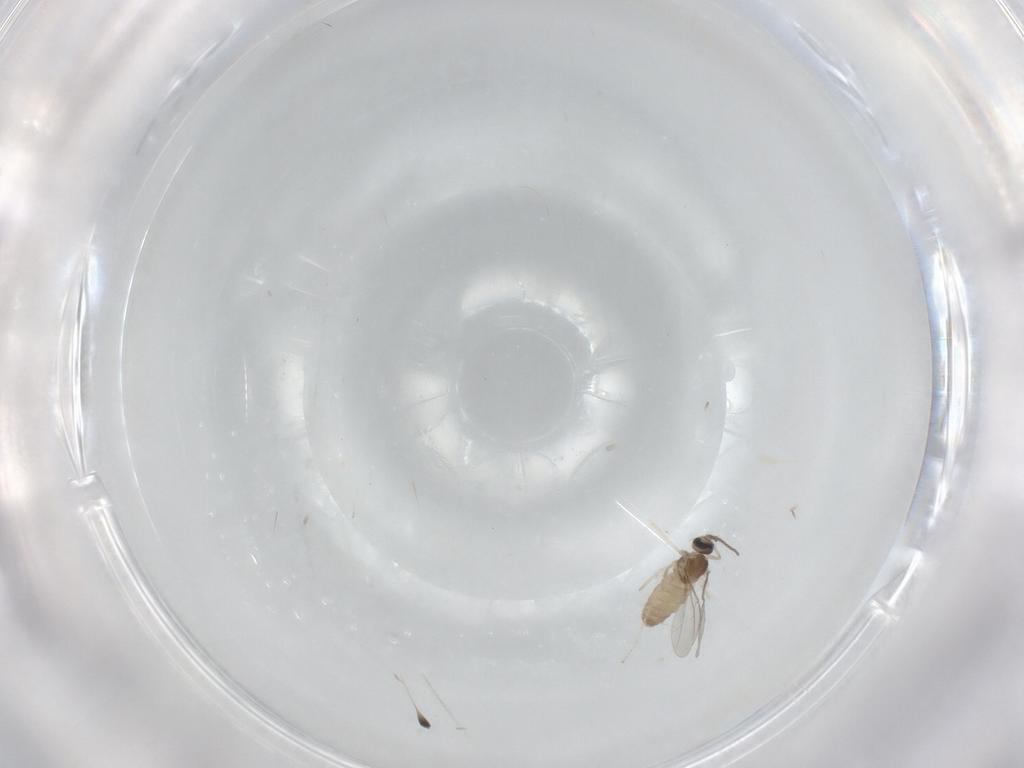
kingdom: Animalia
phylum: Arthropoda
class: Insecta
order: Diptera
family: Cecidomyiidae
